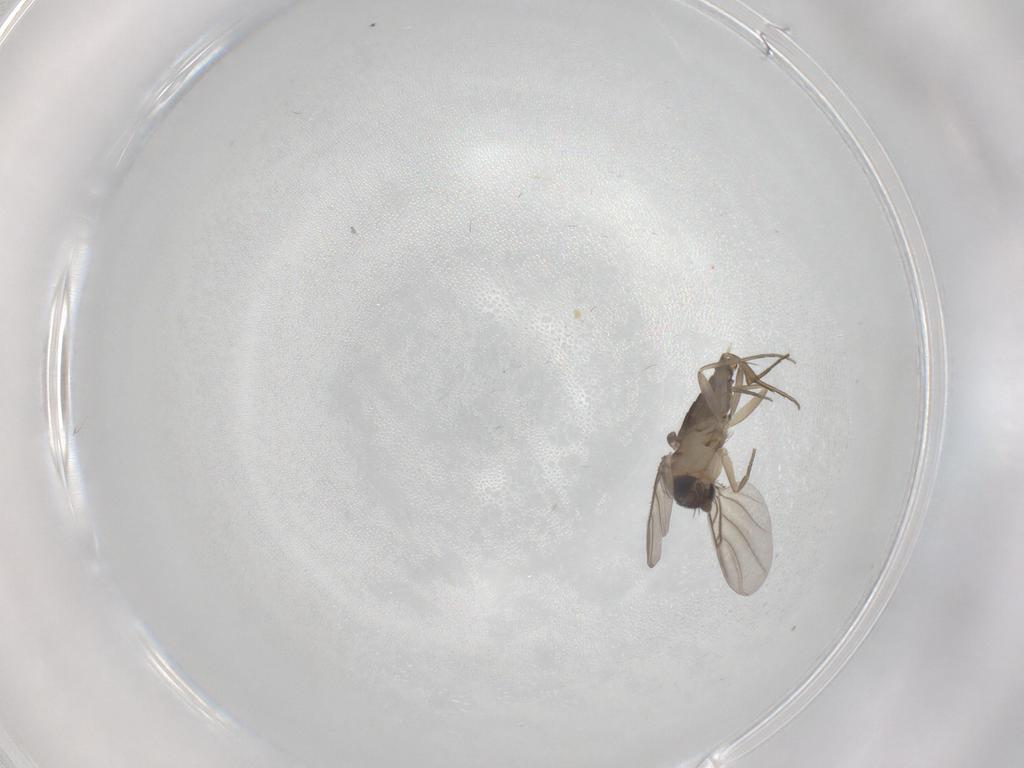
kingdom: Animalia
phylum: Arthropoda
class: Insecta
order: Diptera
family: Phoridae
